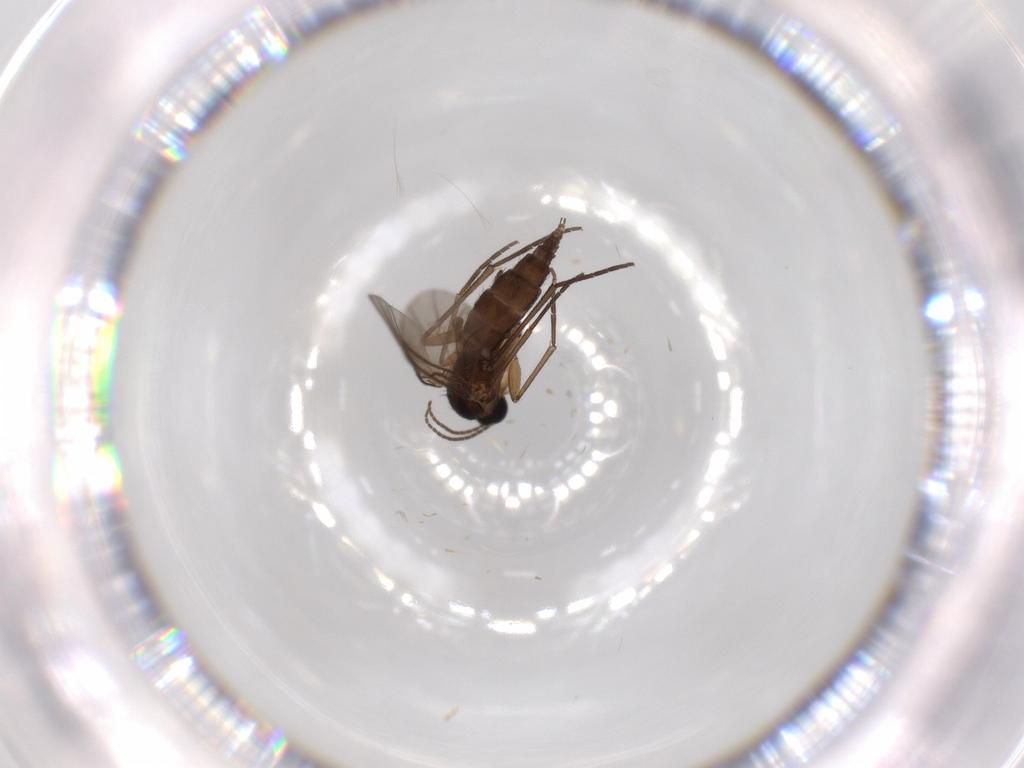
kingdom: Animalia
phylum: Arthropoda
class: Insecta
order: Diptera
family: Sciaridae
